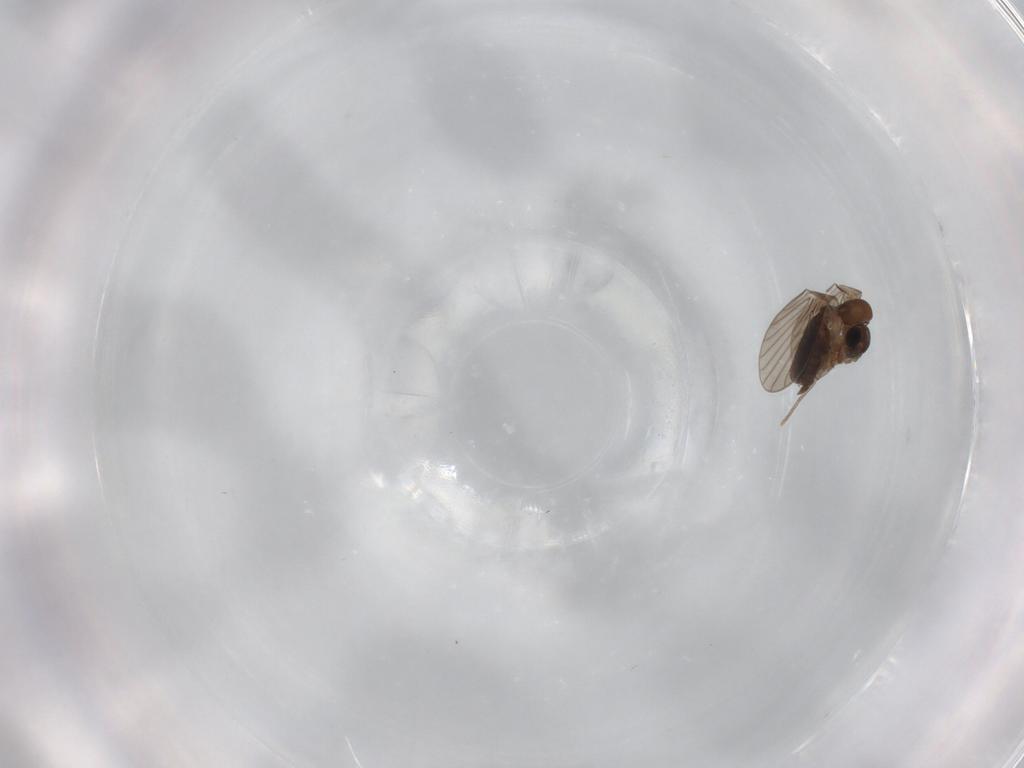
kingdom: Animalia
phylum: Arthropoda
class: Insecta
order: Diptera
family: Psychodidae
